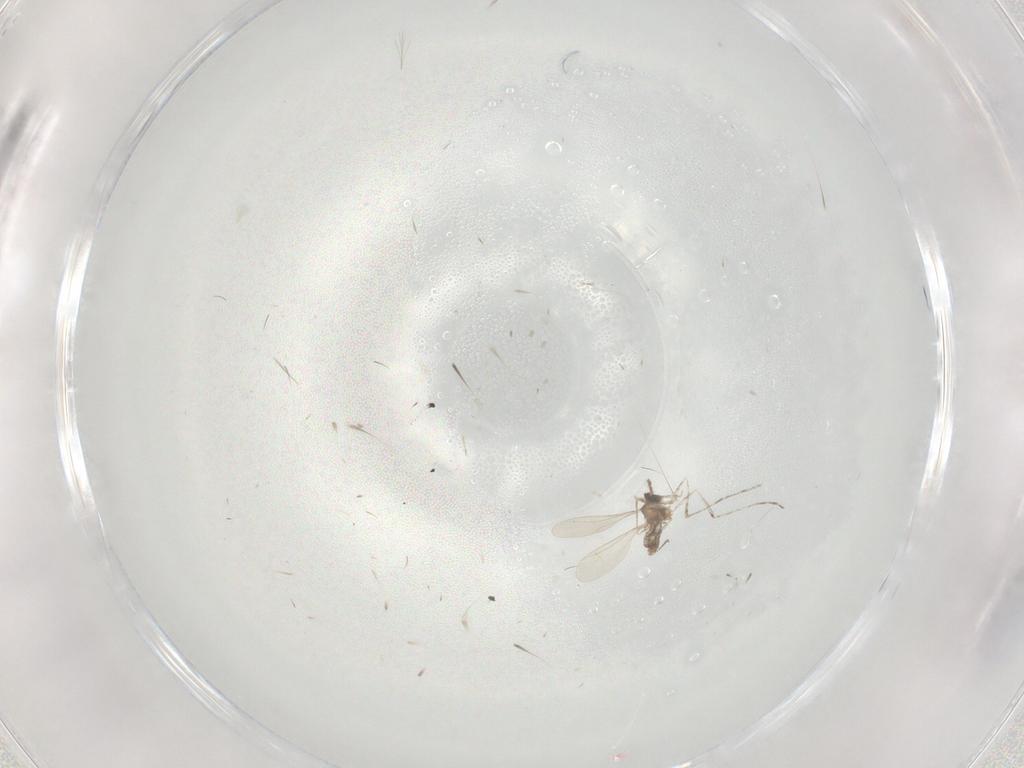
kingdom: Animalia
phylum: Arthropoda
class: Insecta
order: Diptera
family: Cecidomyiidae
